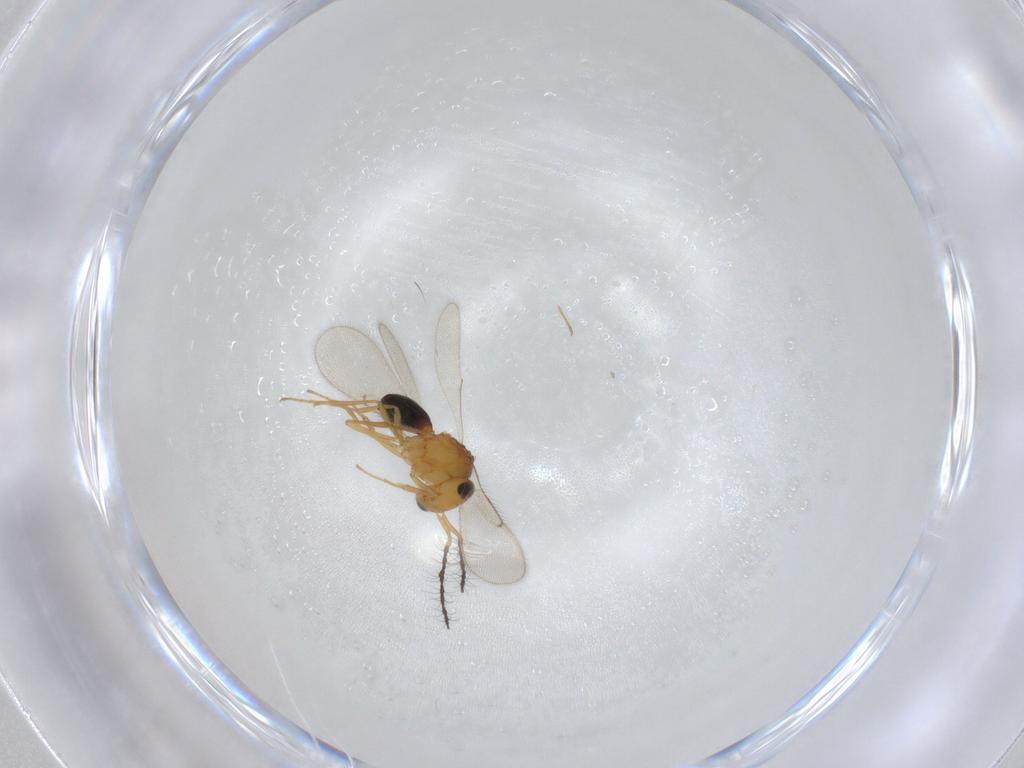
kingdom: Animalia
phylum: Arthropoda
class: Insecta
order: Hymenoptera
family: Scelionidae
